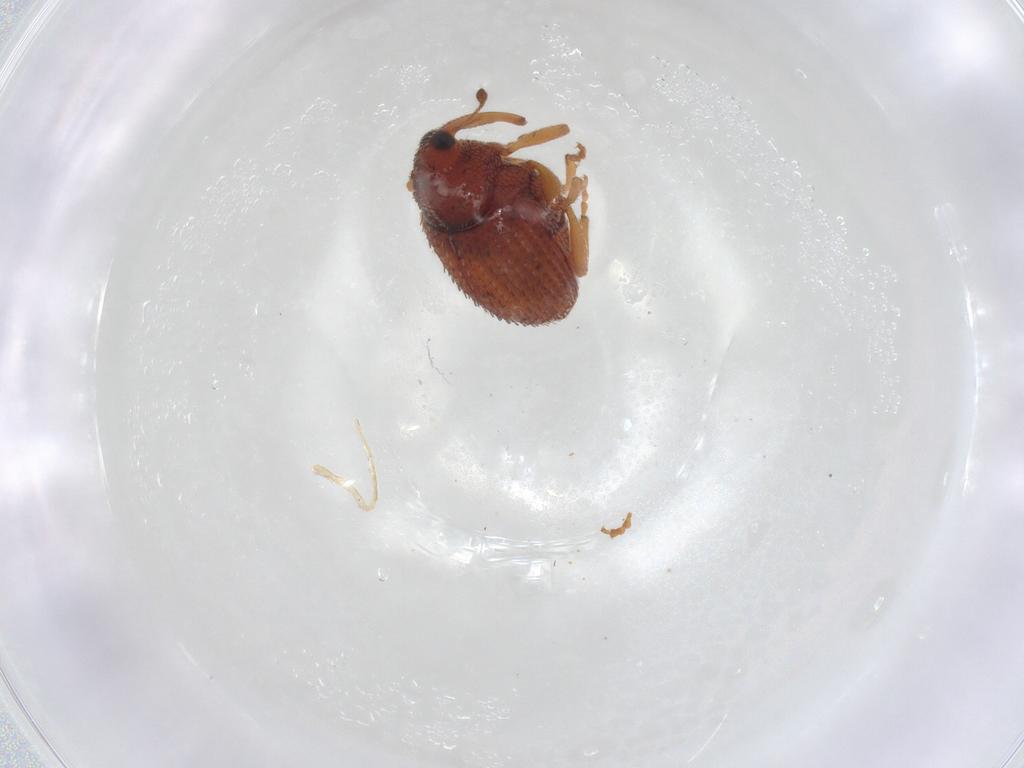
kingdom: Animalia
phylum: Arthropoda
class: Insecta
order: Coleoptera
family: Curculionidae
